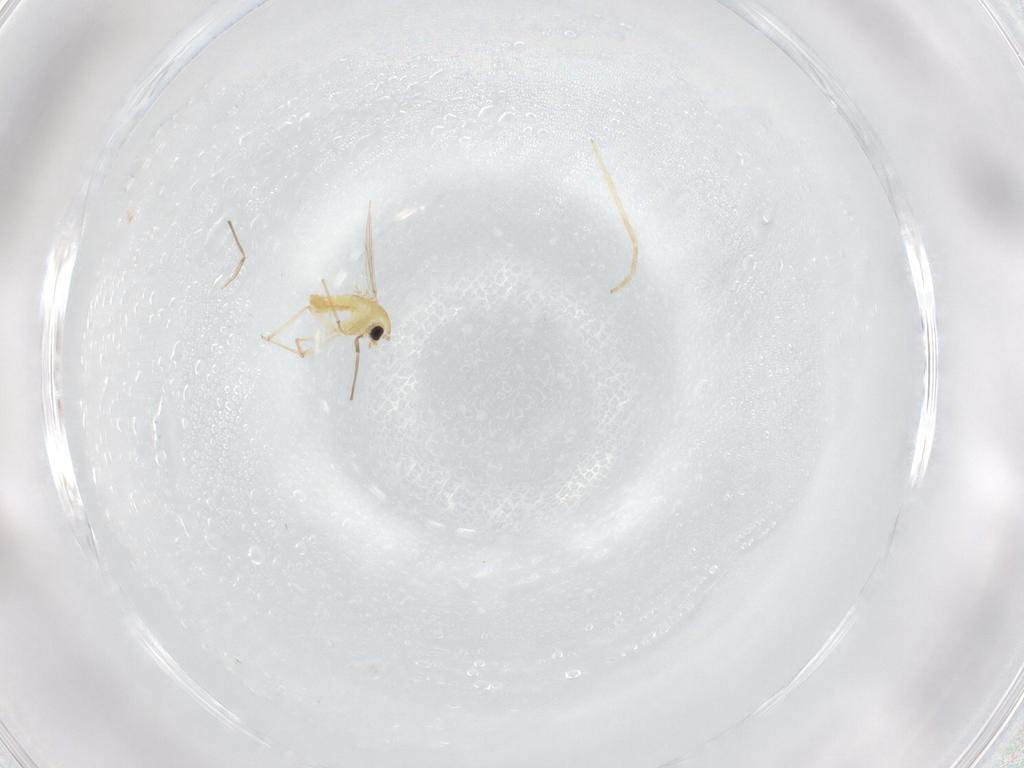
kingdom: Animalia
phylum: Arthropoda
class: Insecta
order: Diptera
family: Chironomidae
